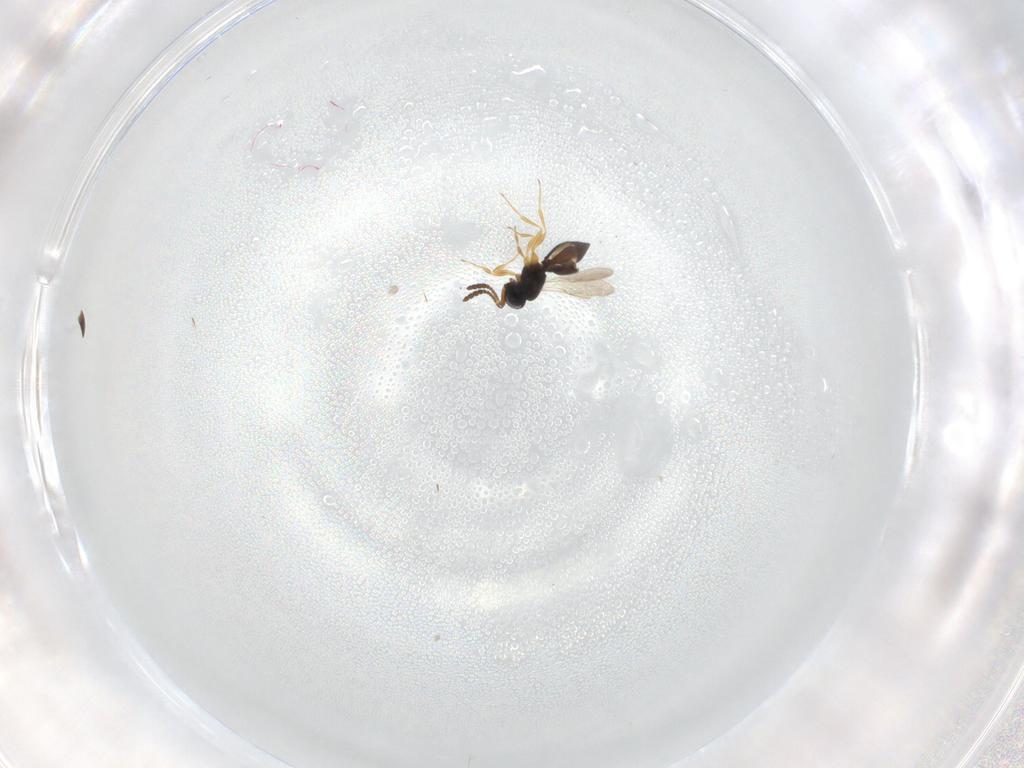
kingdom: Animalia
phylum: Arthropoda
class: Insecta
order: Hymenoptera
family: Scelionidae
